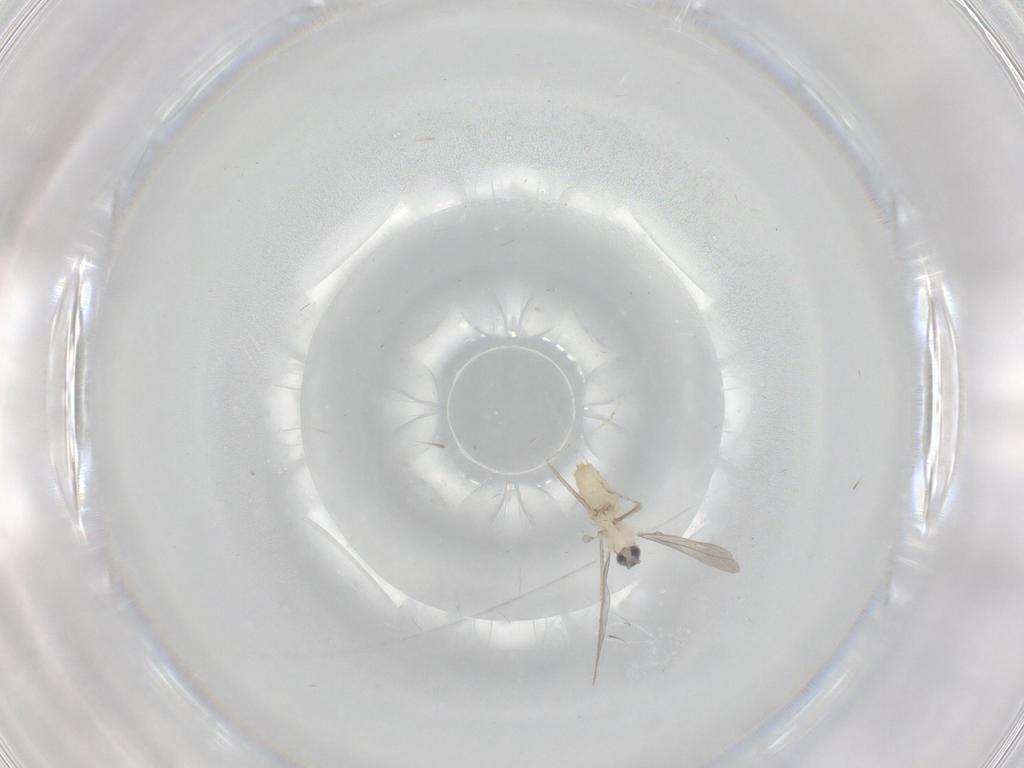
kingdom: Animalia
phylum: Arthropoda
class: Insecta
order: Diptera
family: Cecidomyiidae
